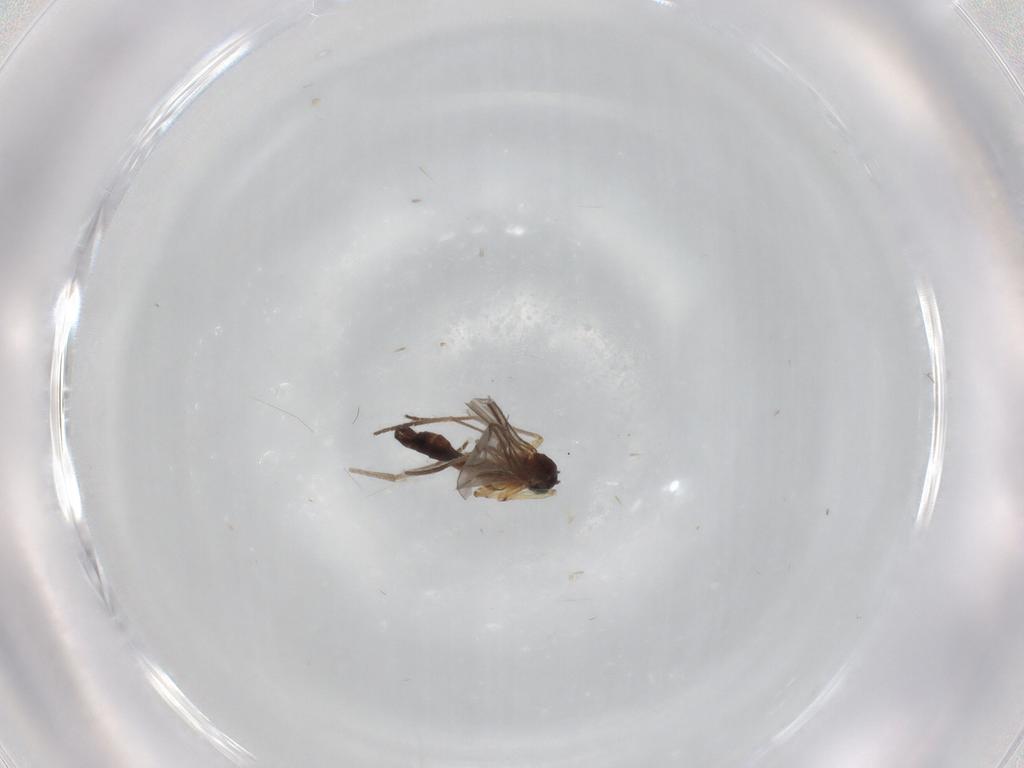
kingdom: Animalia
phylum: Arthropoda
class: Insecta
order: Diptera
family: Sciaridae
